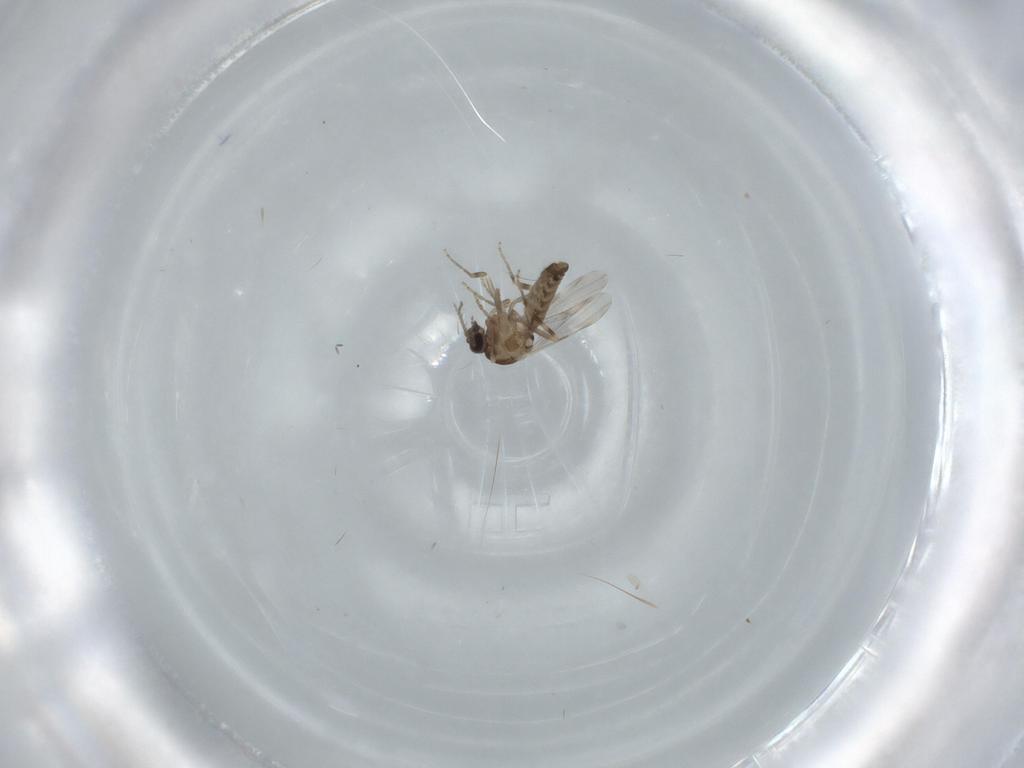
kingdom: Animalia
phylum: Arthropoda
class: Insecta
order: Diptera
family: Ceratopogonidae
